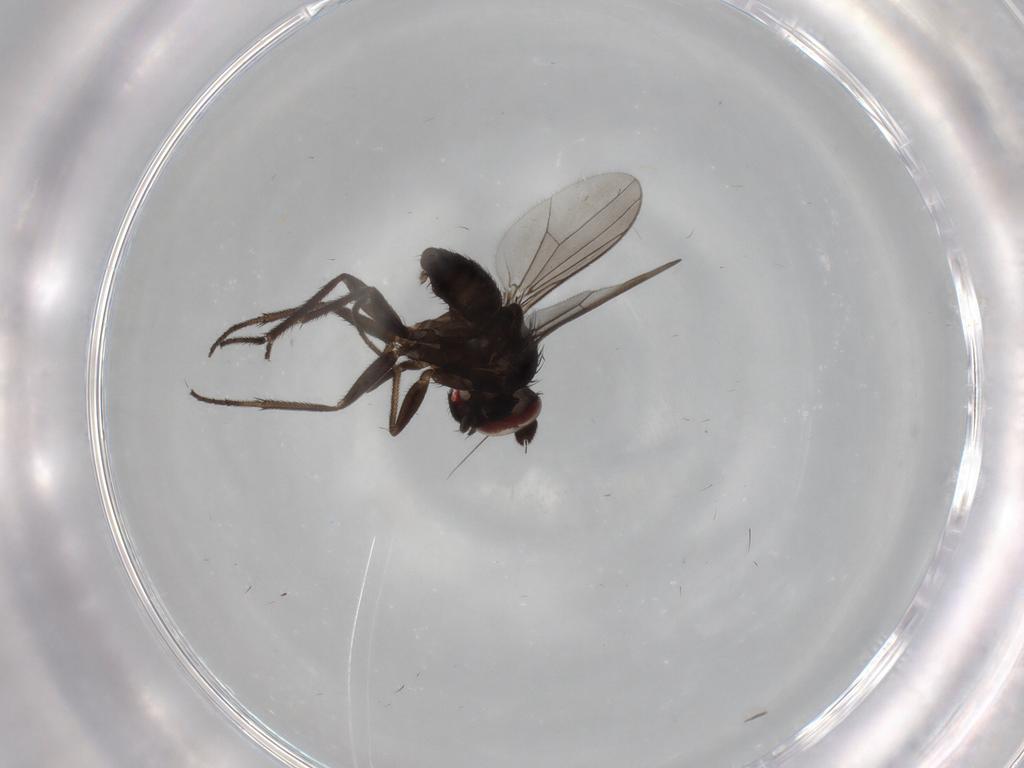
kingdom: Animalia
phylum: Arthropoda
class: Insecta
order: Diptera
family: Dolichopodidae
